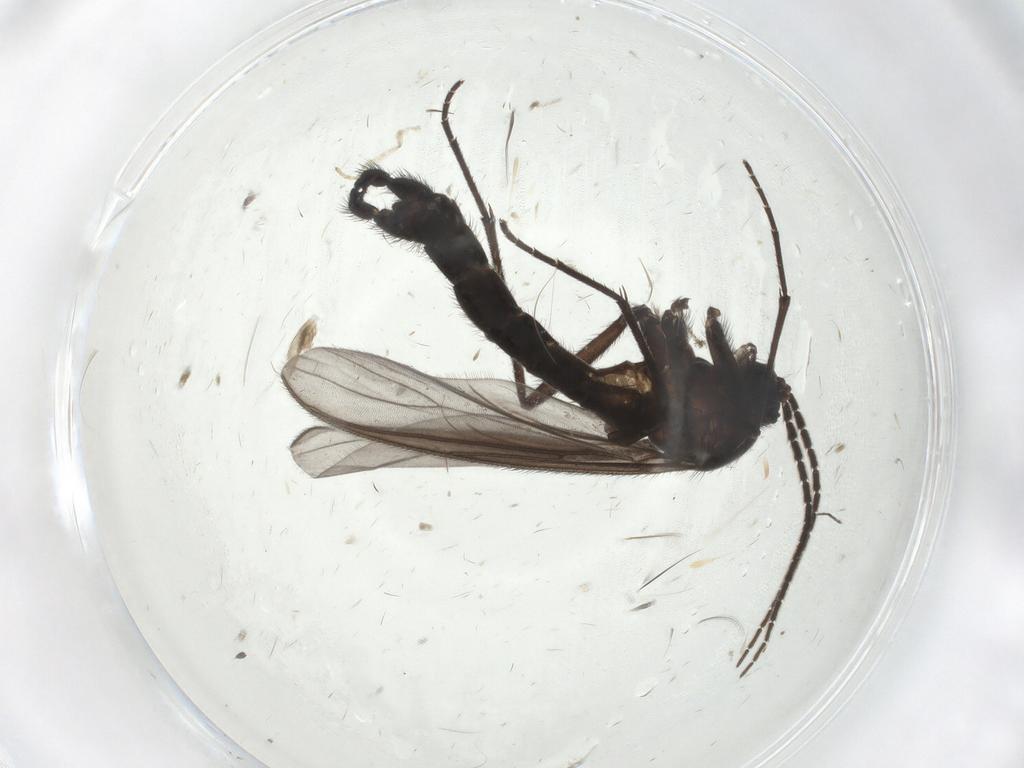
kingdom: Animalia
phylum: Arthropoda
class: Insecta
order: Diptera
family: Cecidomyiidae
